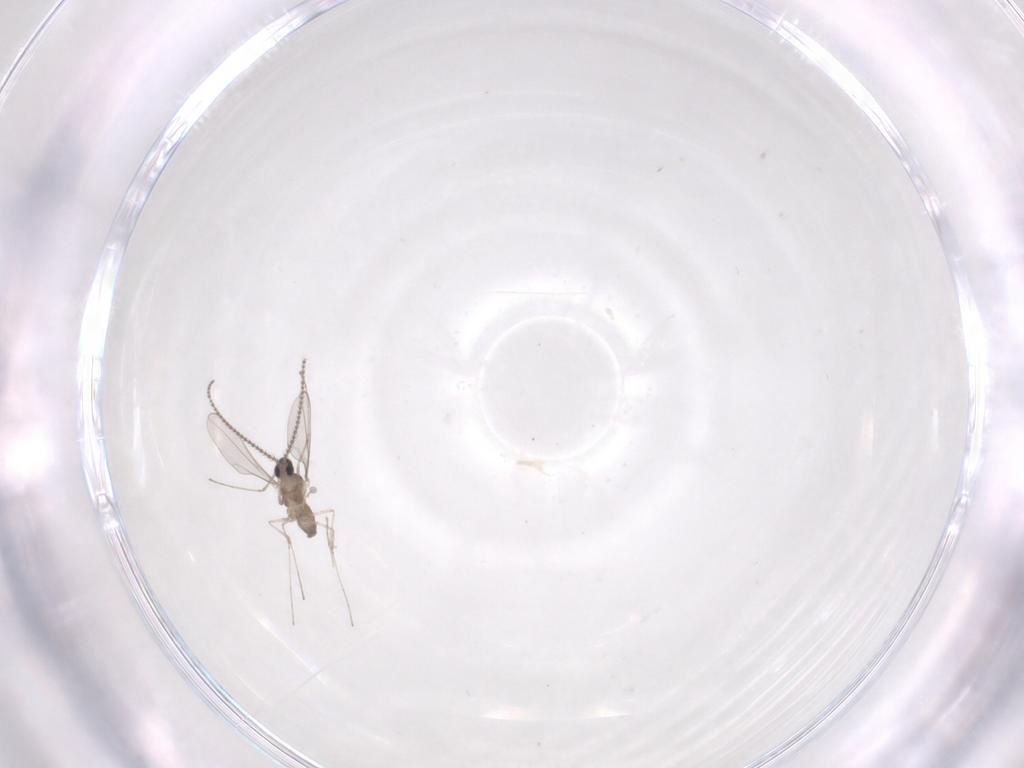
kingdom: Animalia
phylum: Arthropoda
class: Insecta
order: Diptera
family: Cecidomyiidae
